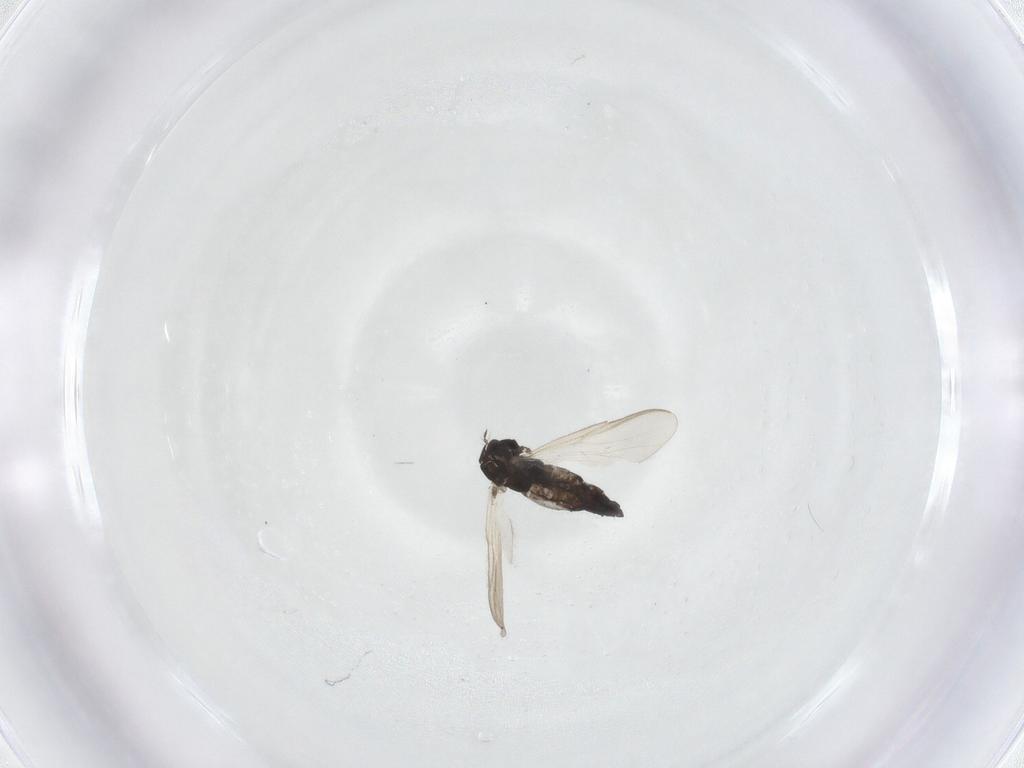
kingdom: Animalia
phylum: Arthropoda
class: Insecta
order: Diptera
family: Chironomidae
